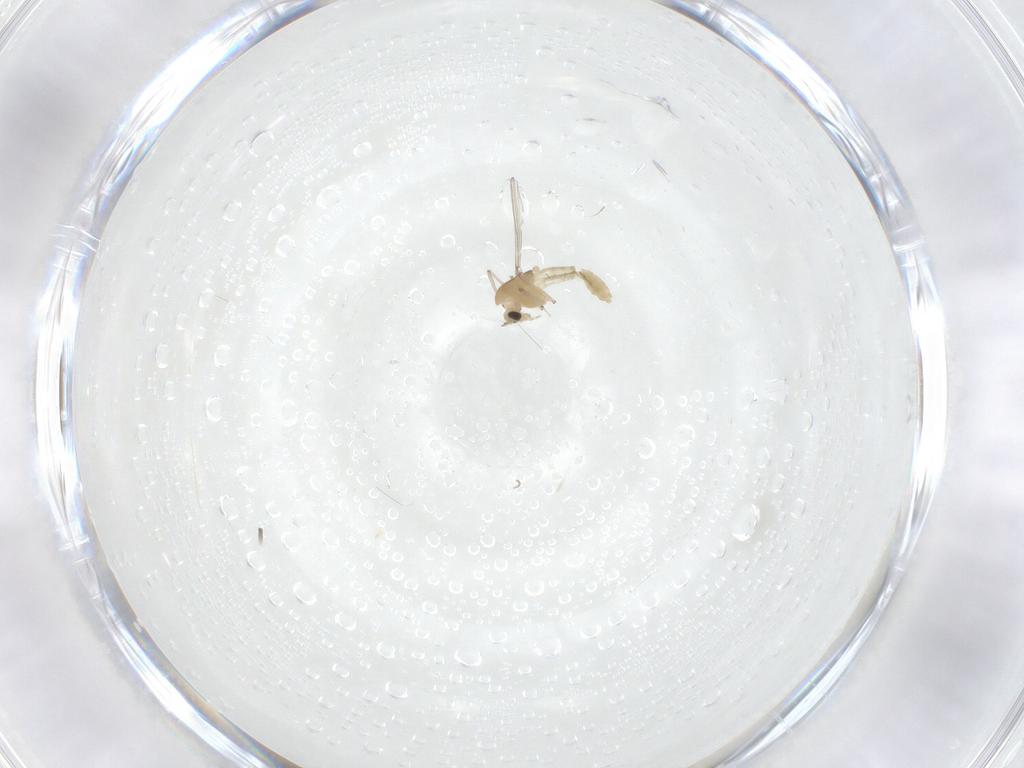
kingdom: Animalia
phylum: Arthropoda
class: Insecta
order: Diptera
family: Chironomidae
